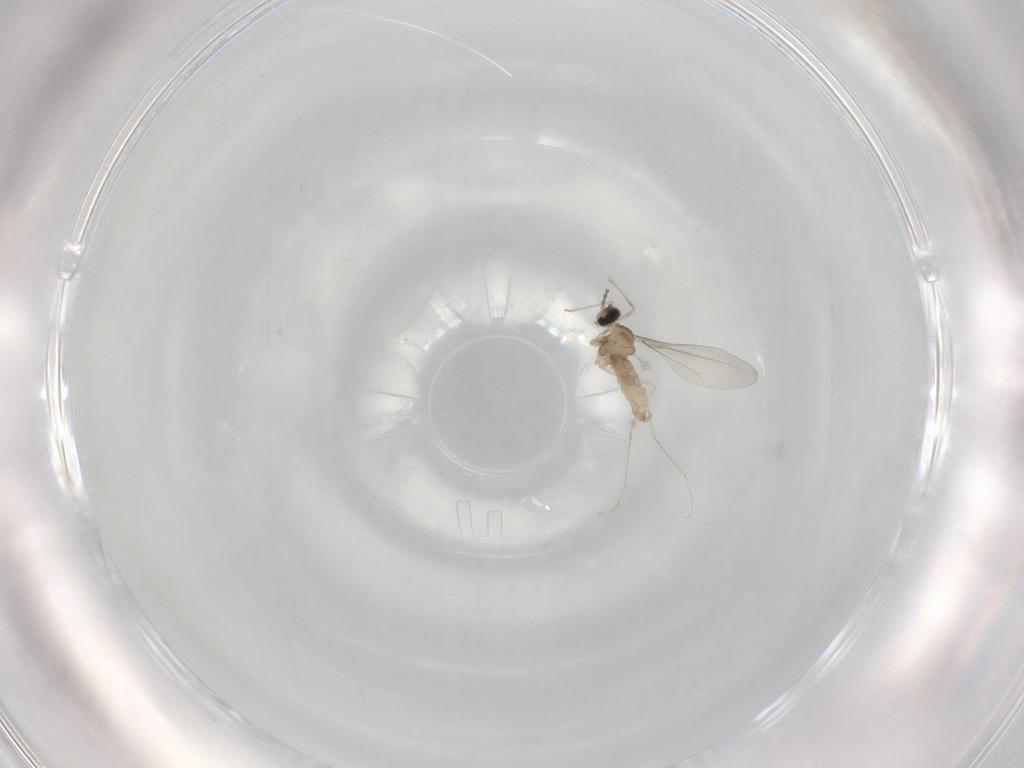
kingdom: Animalia
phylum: Arthropoda
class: Insecta
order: Diptera
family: Cecidomyiidae
